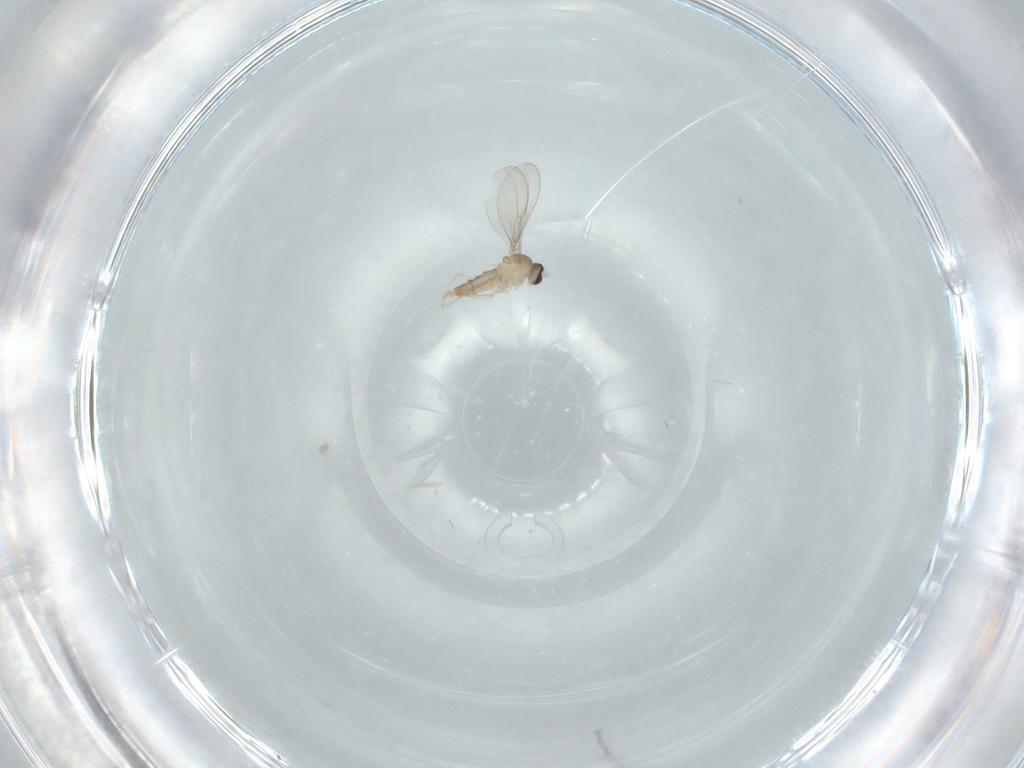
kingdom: Animalia
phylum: Arthropoda
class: Insecta
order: Diptera
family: Cecidomyiidae
